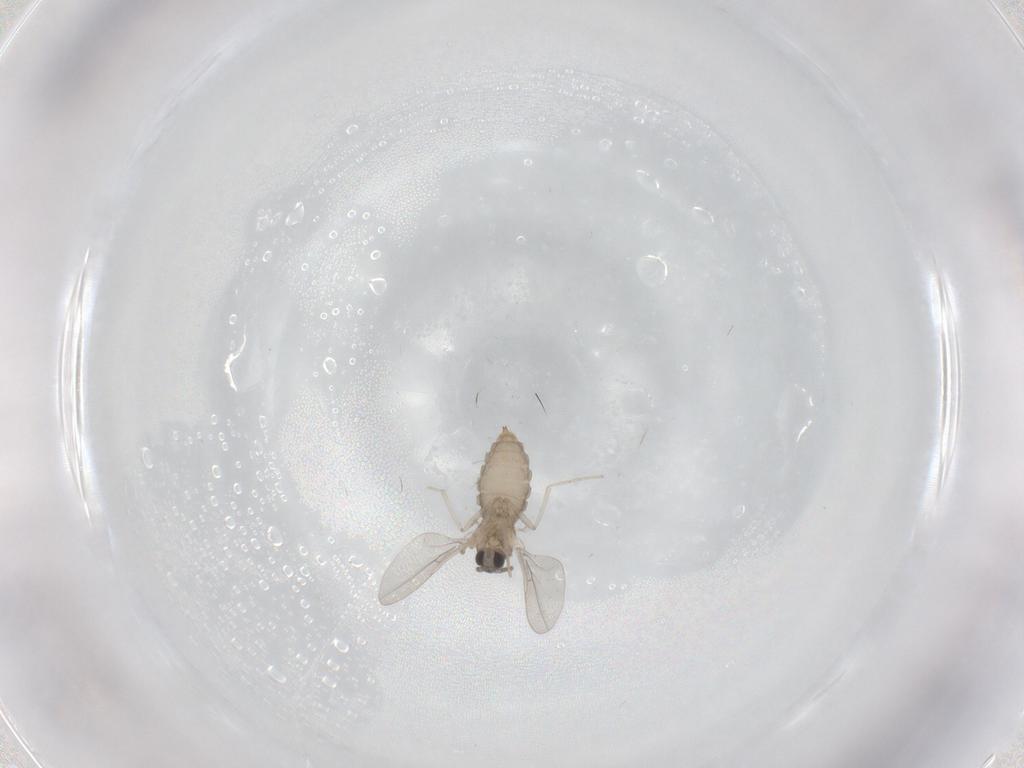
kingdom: Animalia
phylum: Arthropoda
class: Insecta
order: Diptera
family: Cecidomyiidae
